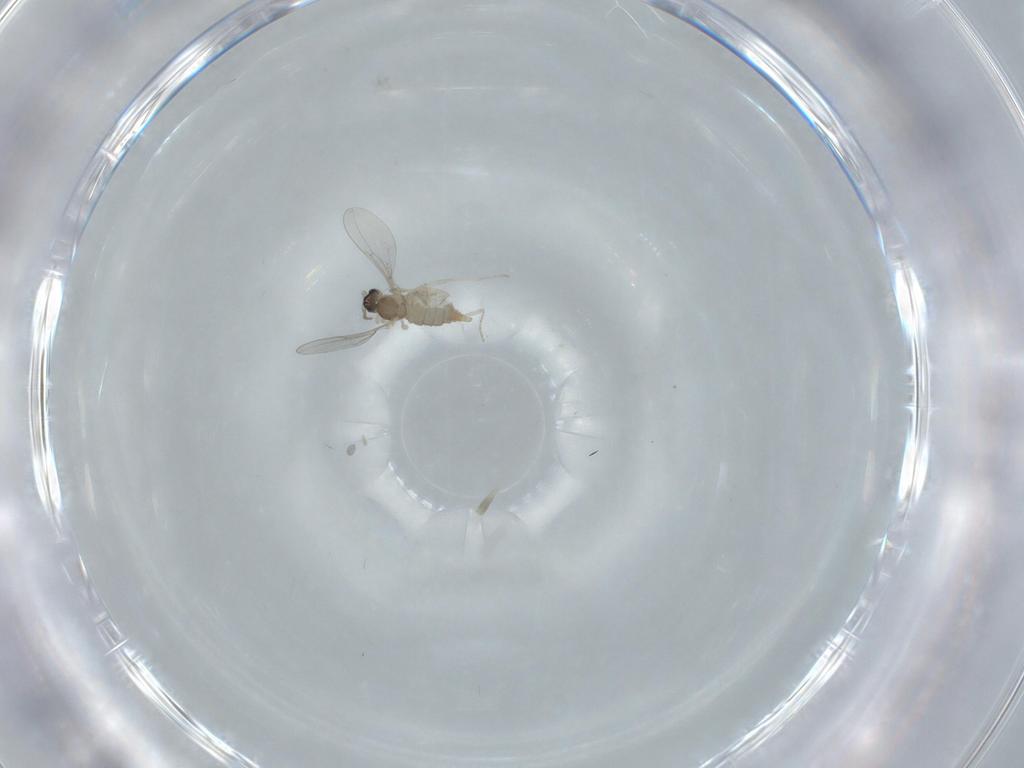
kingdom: Animalia
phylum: Arthropoda
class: Insecta
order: Diptera
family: Cecidomyiidae
